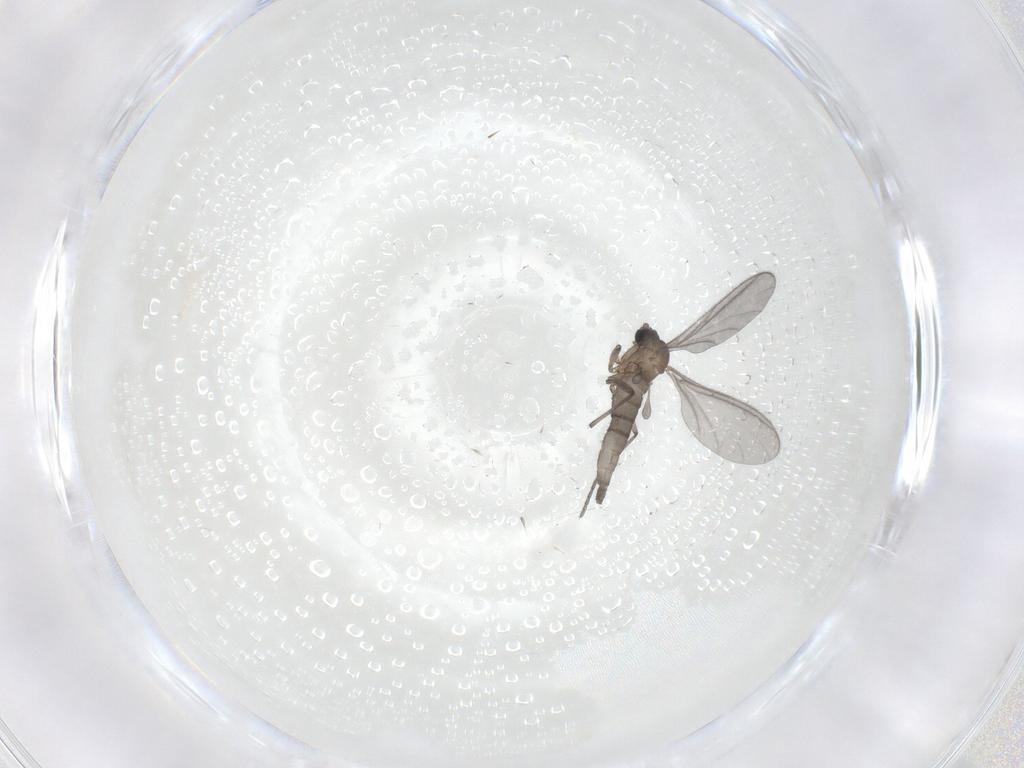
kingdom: Animalia
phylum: Arthropoda
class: Insecta
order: Diptera
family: Sciaridae
